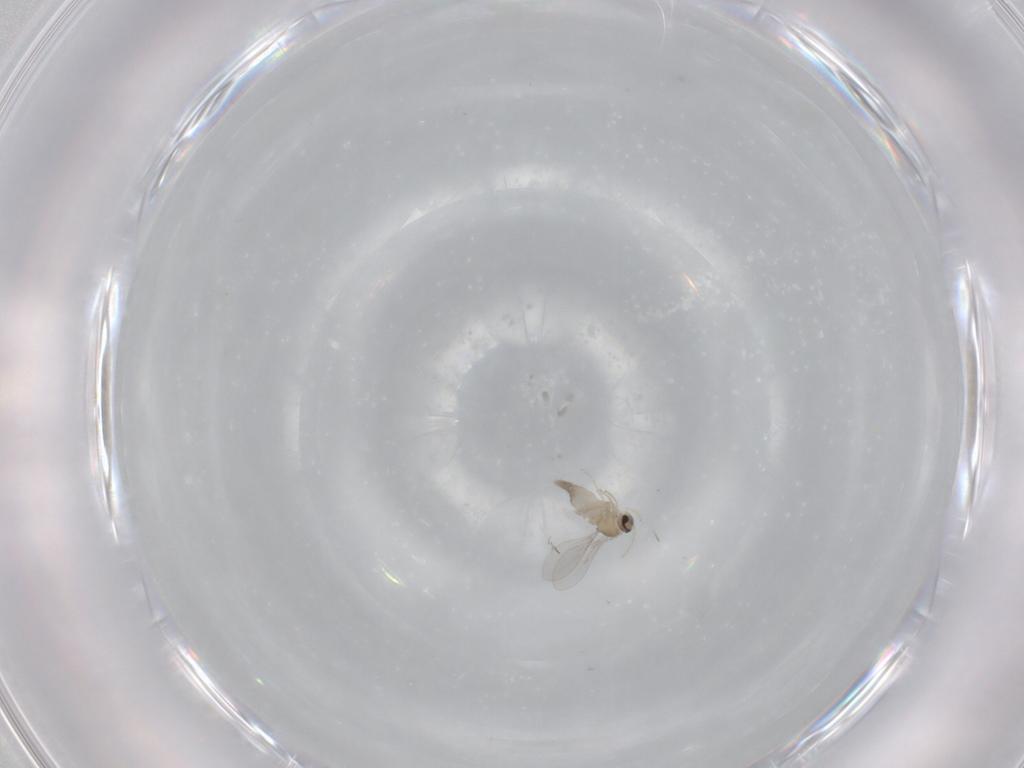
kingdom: Animalia
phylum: Arthropoda
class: Insecta
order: Diptera
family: Cecidomyiidae
